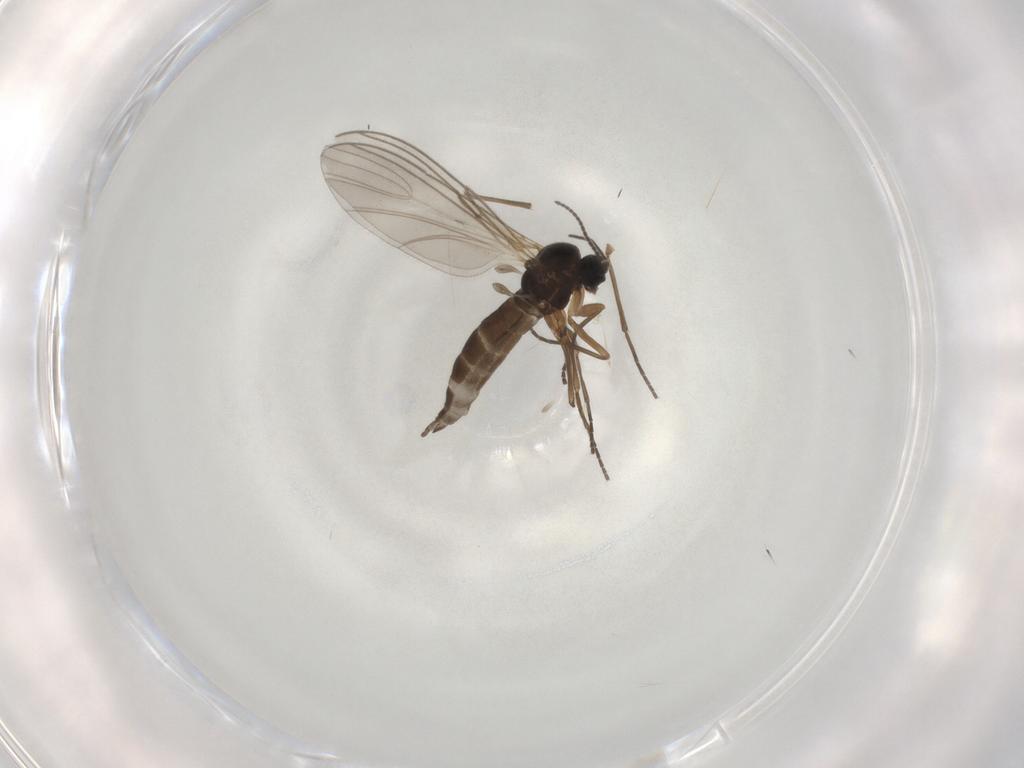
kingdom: Animalia
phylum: Arthropoda
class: Insecta
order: Diptera
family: Sciaridae
